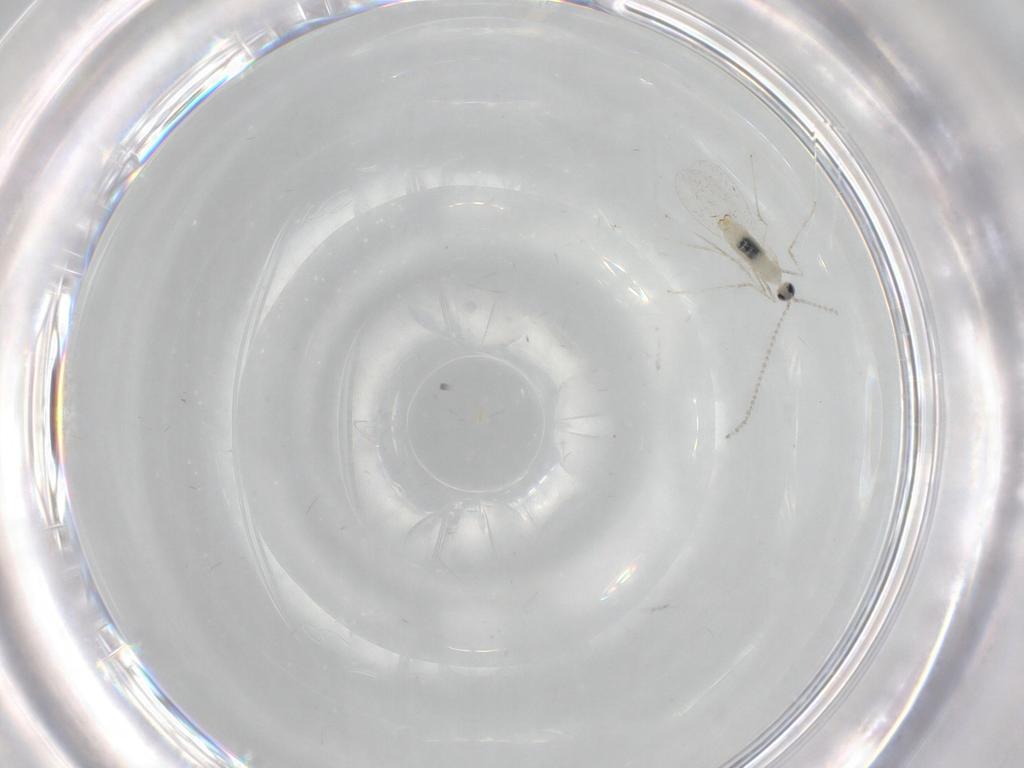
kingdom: Animalia
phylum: Arthropoda
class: Insecta
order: Diptera
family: Cecidomyiidae
